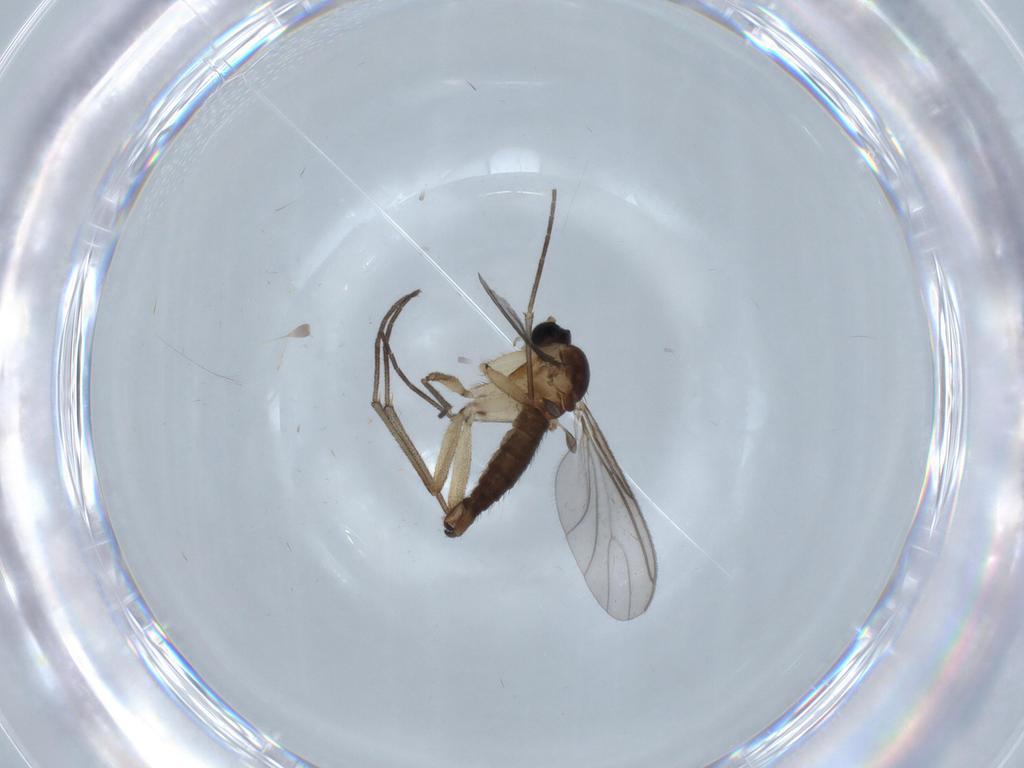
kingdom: Animalia
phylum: Arthropoda
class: Insecta
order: Diptera
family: Sciaridae
